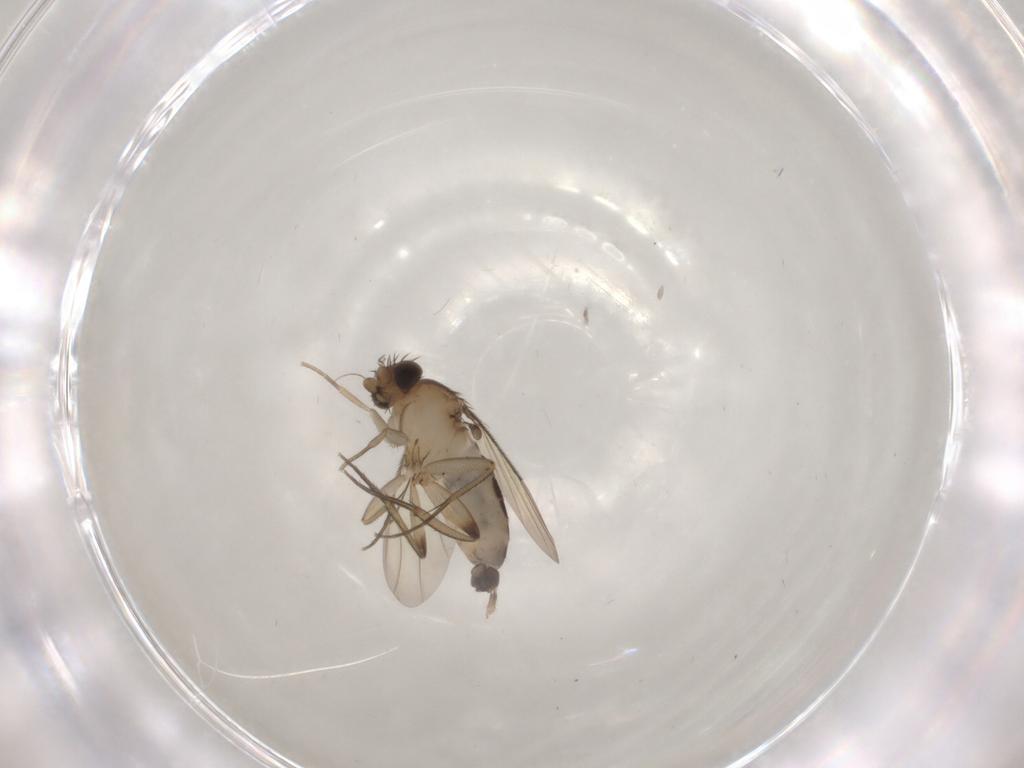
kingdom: Animalia
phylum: Arthropoda
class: Insecta
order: Diptera
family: Phoridae
